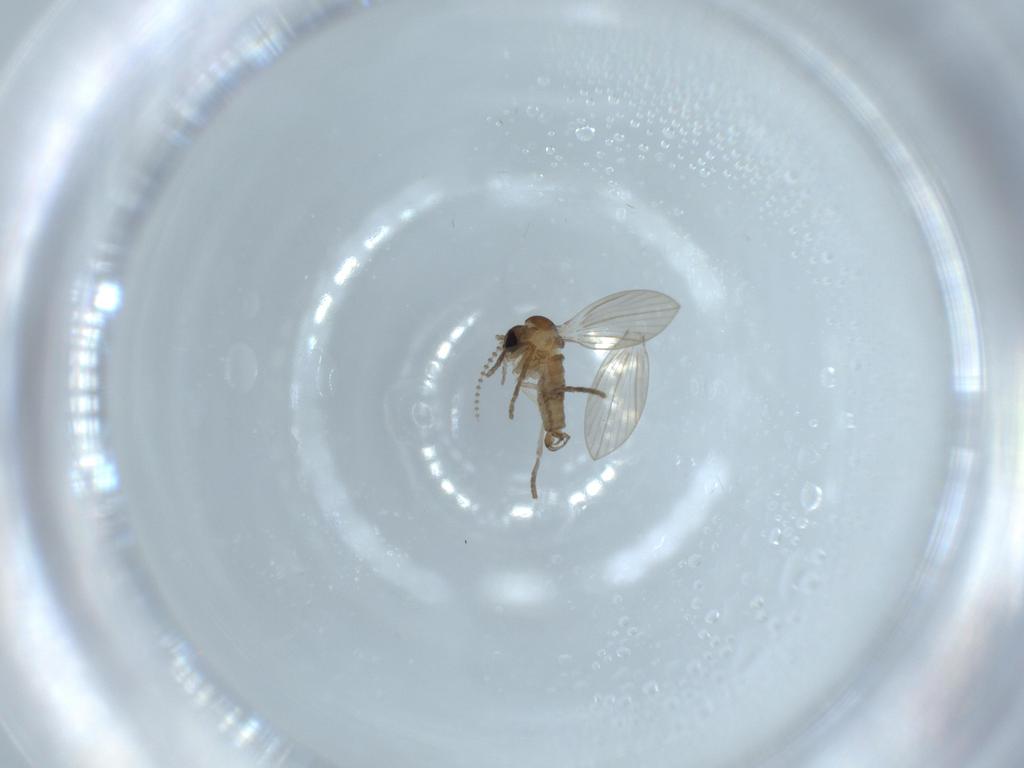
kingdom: Animalia
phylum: Arthropoda
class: Insecta
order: Diptera
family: Psychodidae
